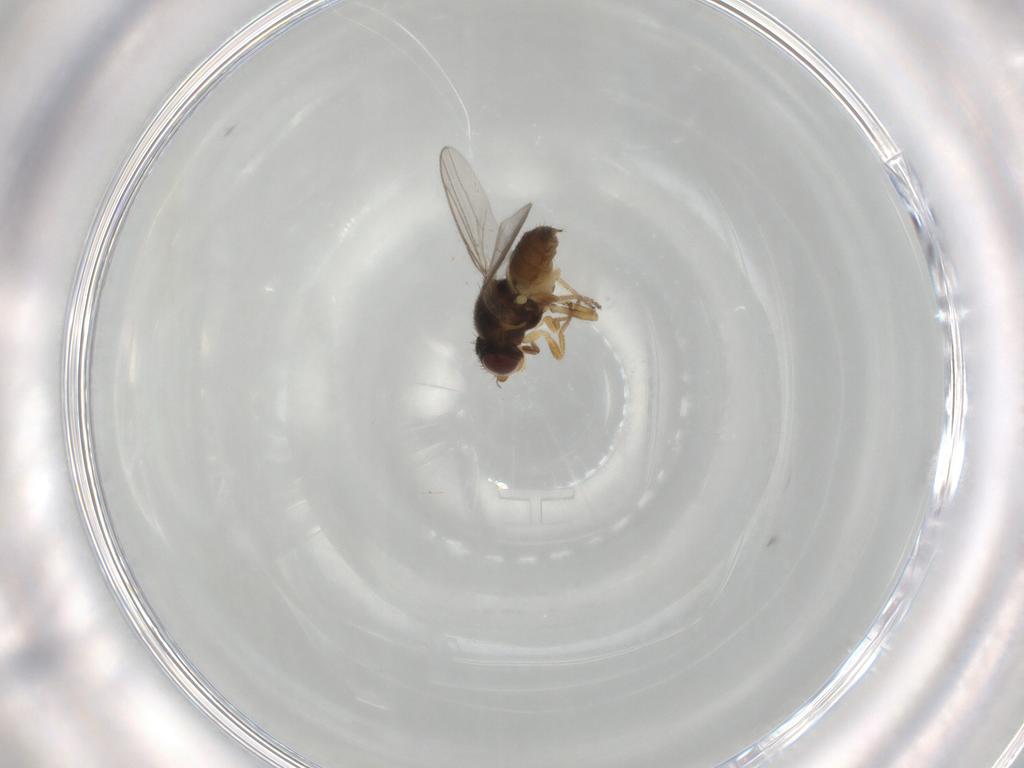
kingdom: Animalia
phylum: Arthropoda
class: Insecta
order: Diptera
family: Chloropidae
